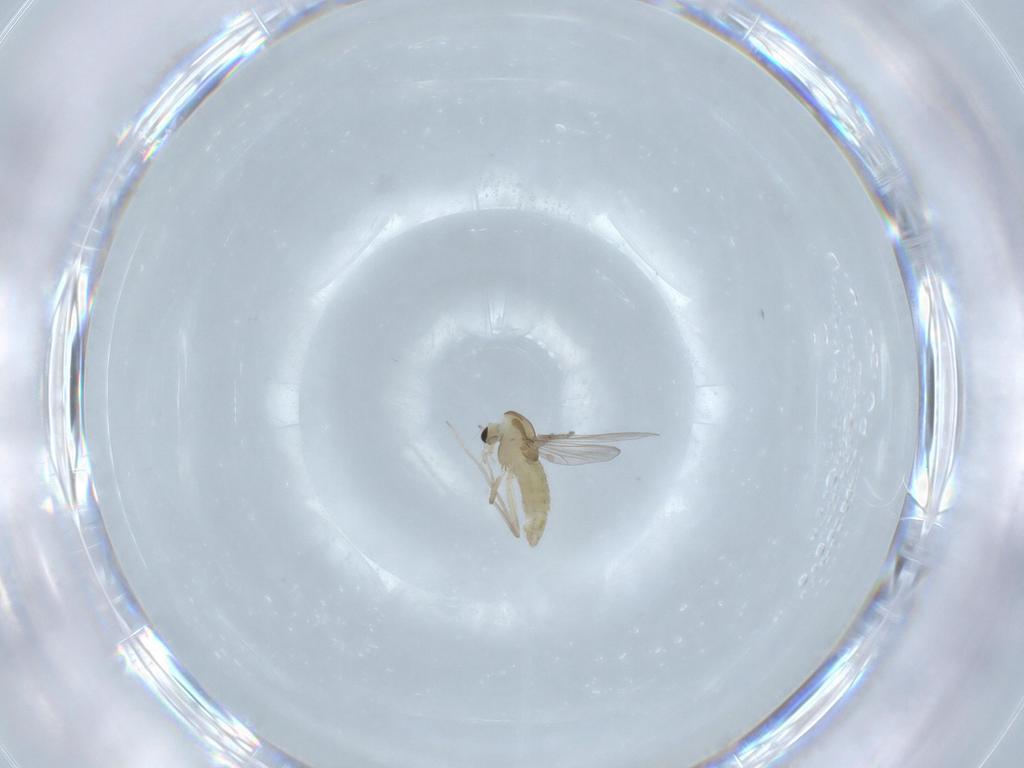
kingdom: Animalia
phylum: Arthropoda
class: Insecta
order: Diptera
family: Chironomidae
